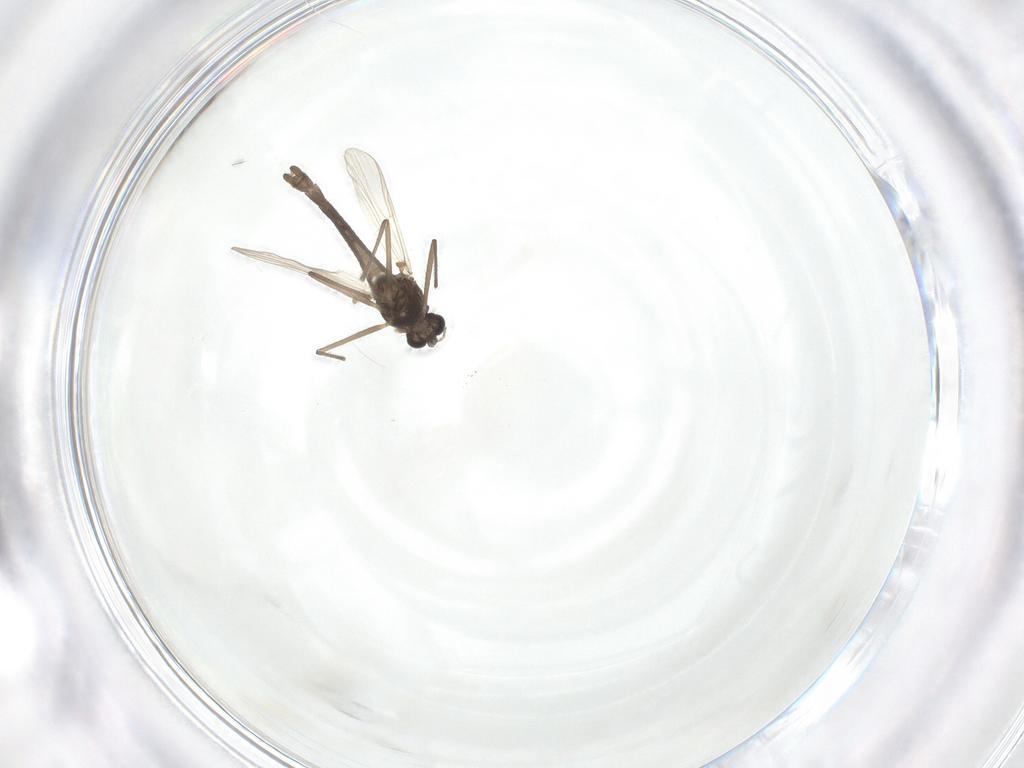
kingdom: Animalia
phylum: Arthropoda
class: Insecta
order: Diptera
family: Chironomidae
